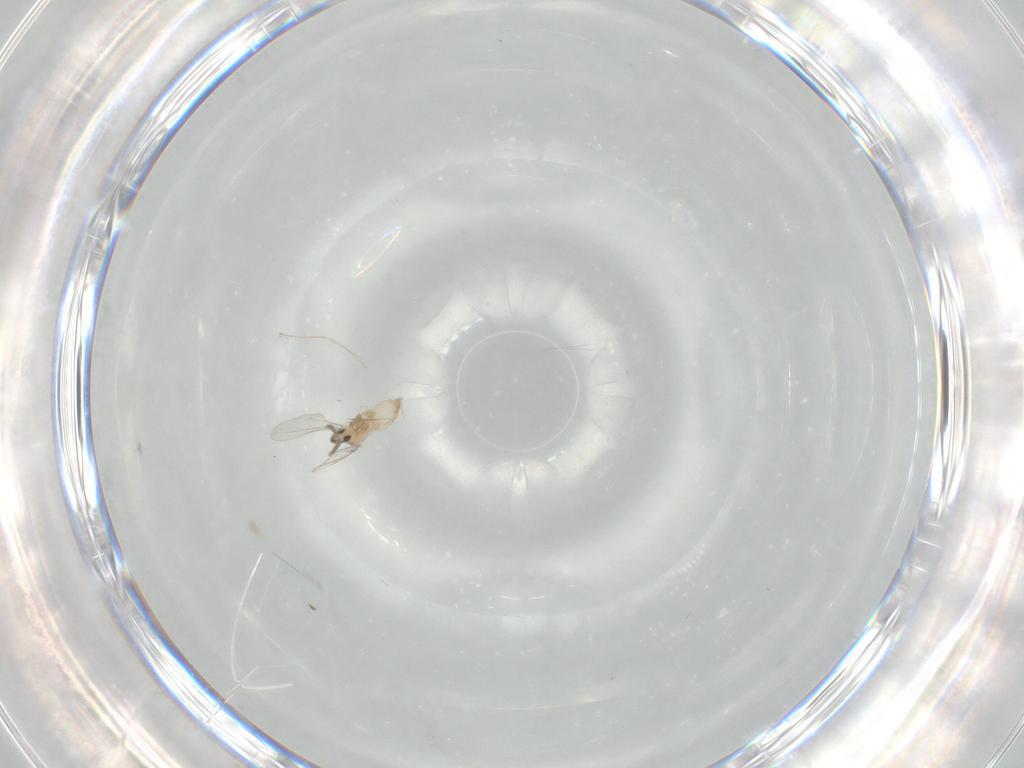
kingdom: Animalia
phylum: Arthropoda
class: Insecta
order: Diptera
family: Cecidomyiidae
